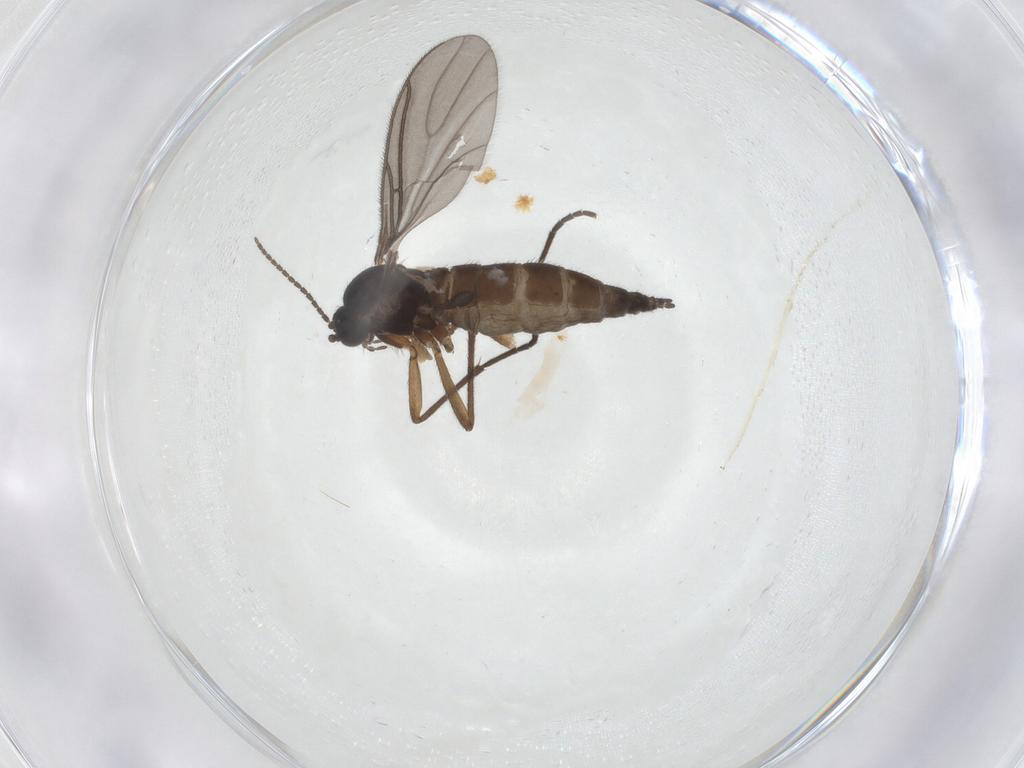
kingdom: Animalia
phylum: Arthropoda
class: Insecta
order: Diptera
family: Sciaridae
